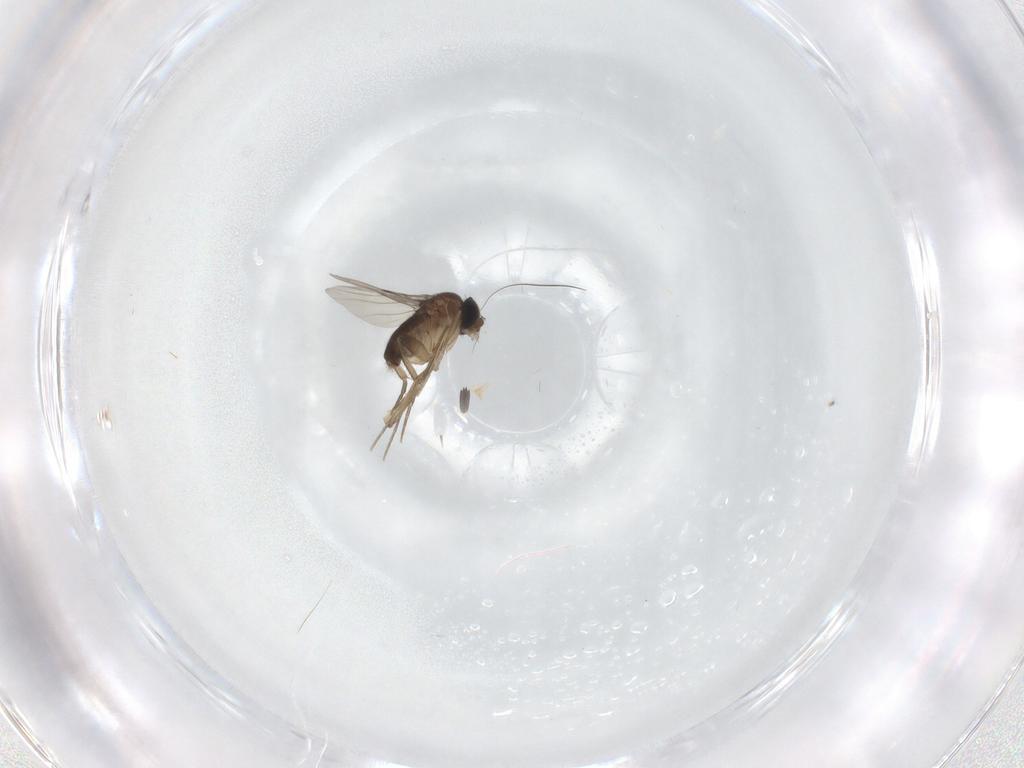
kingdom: Animalia
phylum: Arthropoda
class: Insecta
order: Diptera
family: Phoridae
